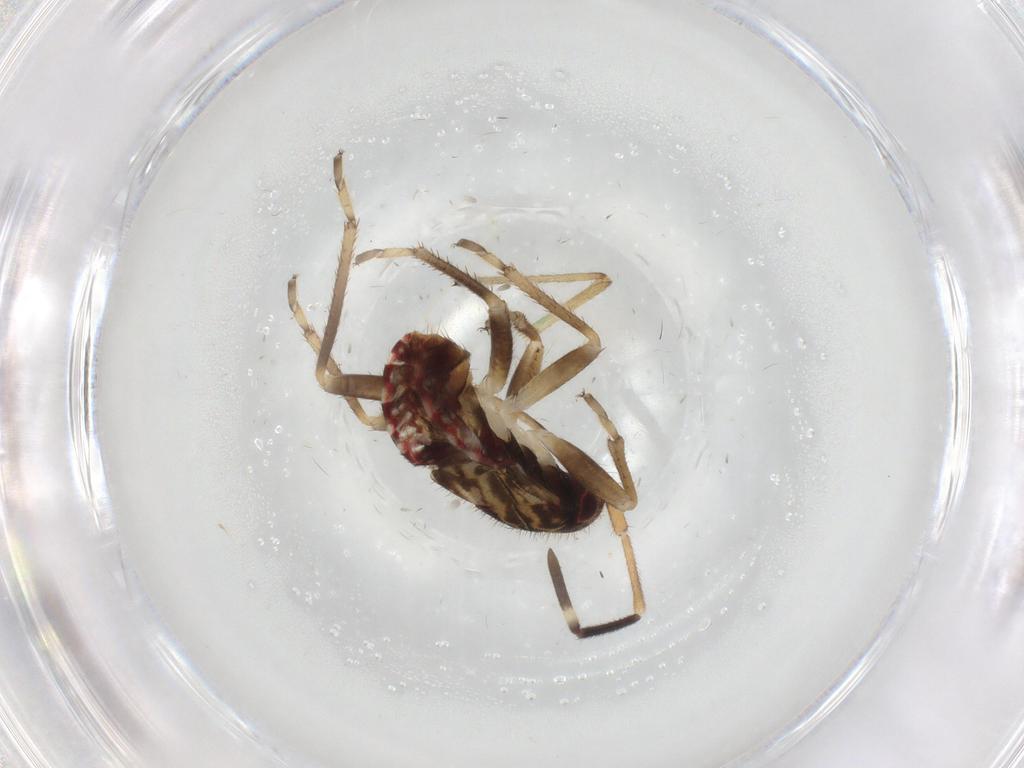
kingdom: Animalia
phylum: Arthropoda
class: Insecta
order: Hemiptera
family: Rhyparochromidae
